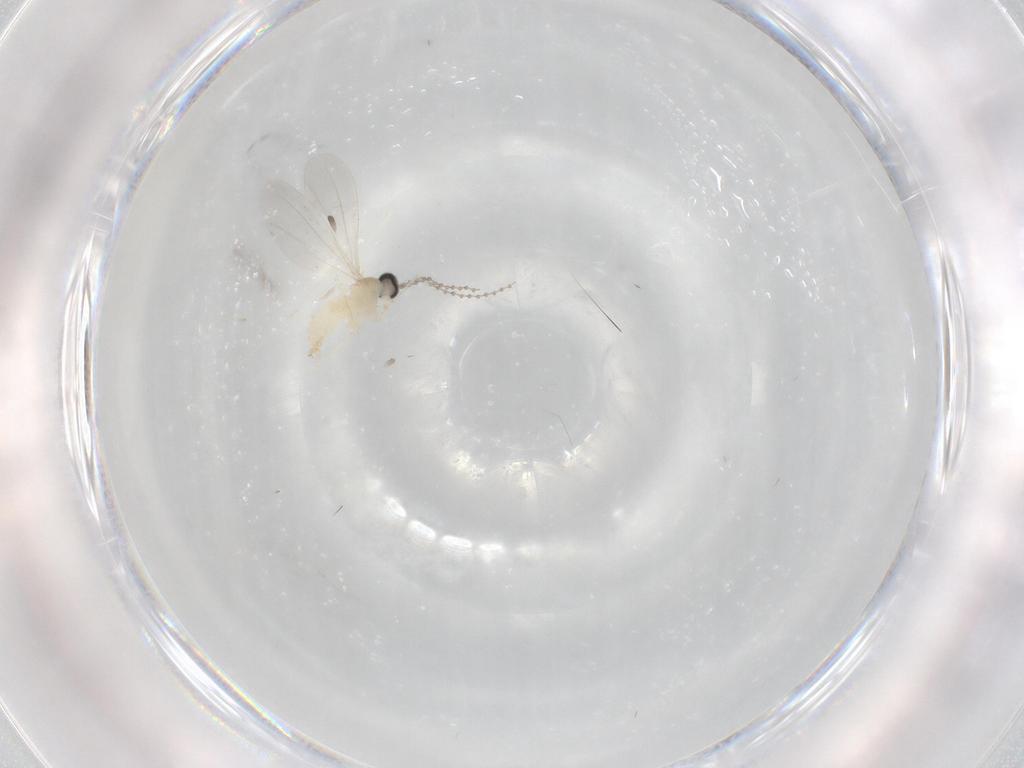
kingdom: Animalia
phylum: Arthropoda
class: Insecta
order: Diptera
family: Cecidomyiidae
